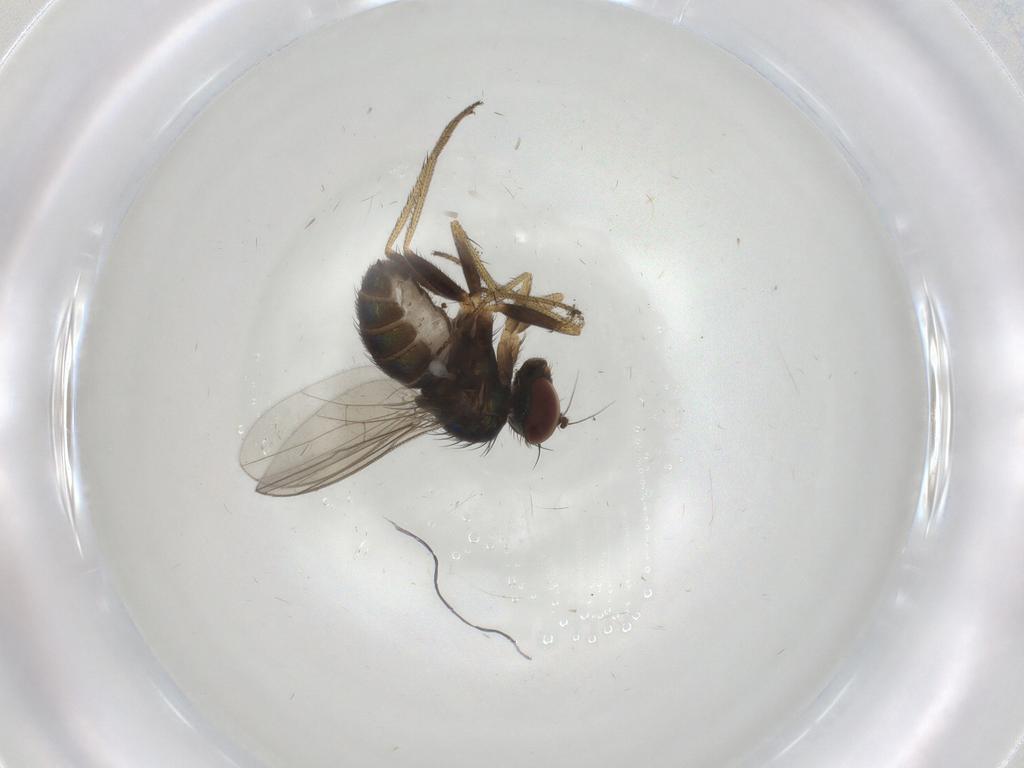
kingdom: Animalia
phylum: Arthropoda
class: Insecta
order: Diptera
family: Dolichopodidae
